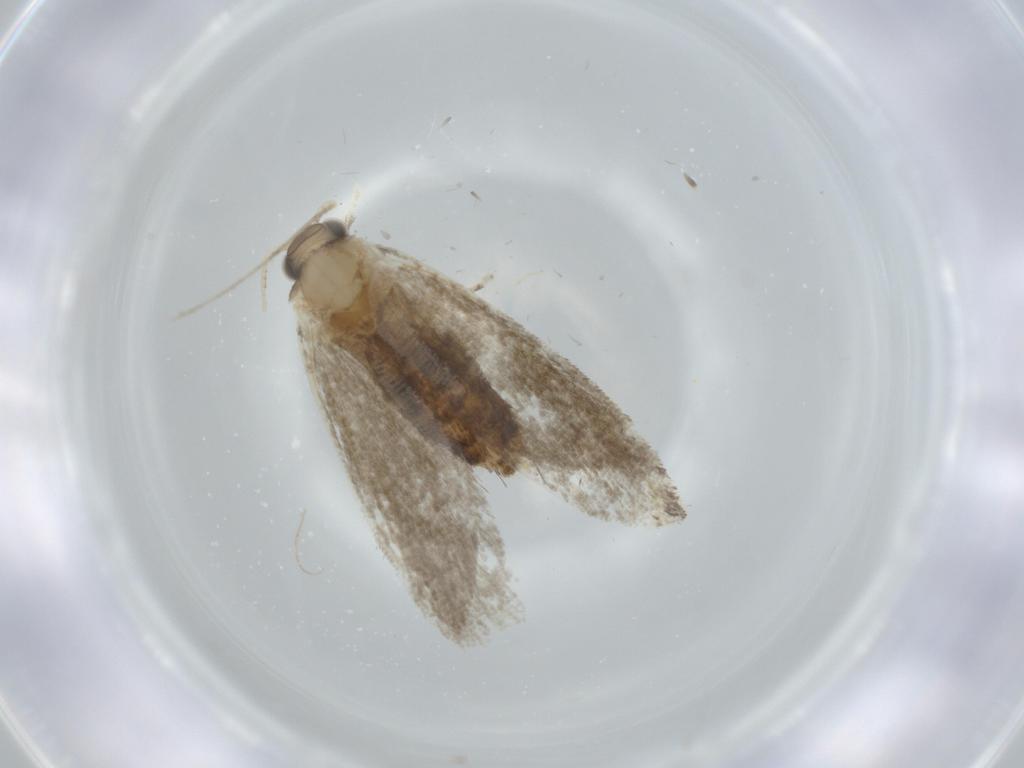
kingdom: Animalia
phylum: Arthropoda
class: Insecta
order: Lepidoptera
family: Tineidae
